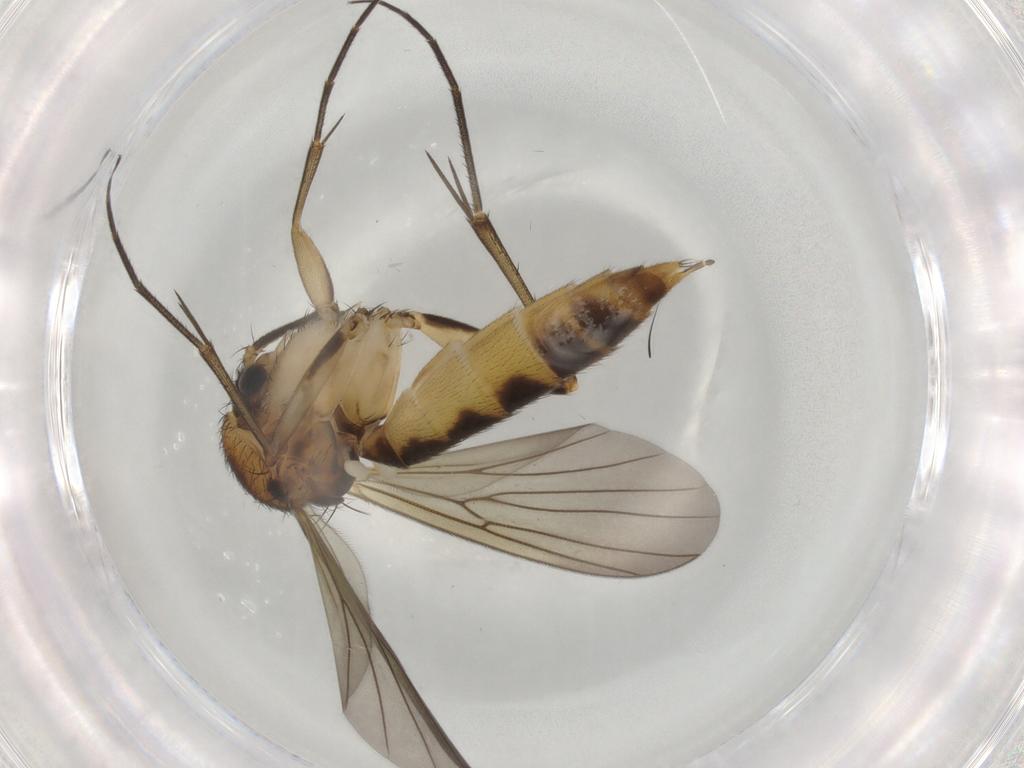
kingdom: Animalia
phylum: Arthropoda
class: Insecta
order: Diptera
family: Mycetophilidae
